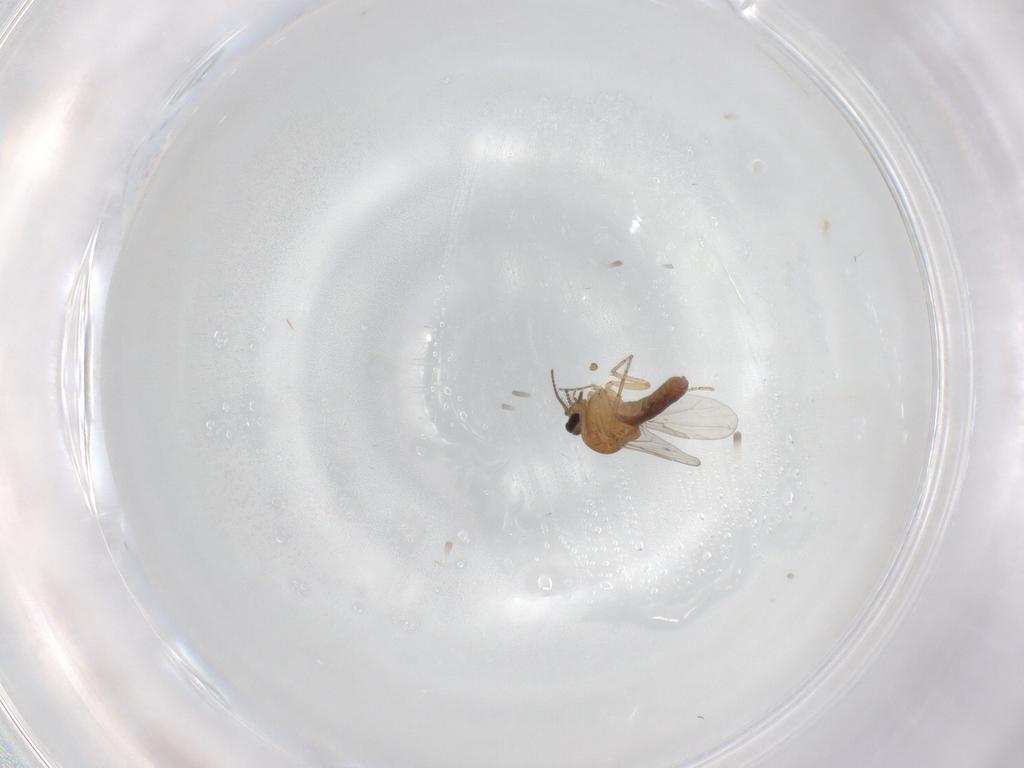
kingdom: Animalia
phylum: Arthropoda
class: Insecta
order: Diptera
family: Ceratopogonidae
